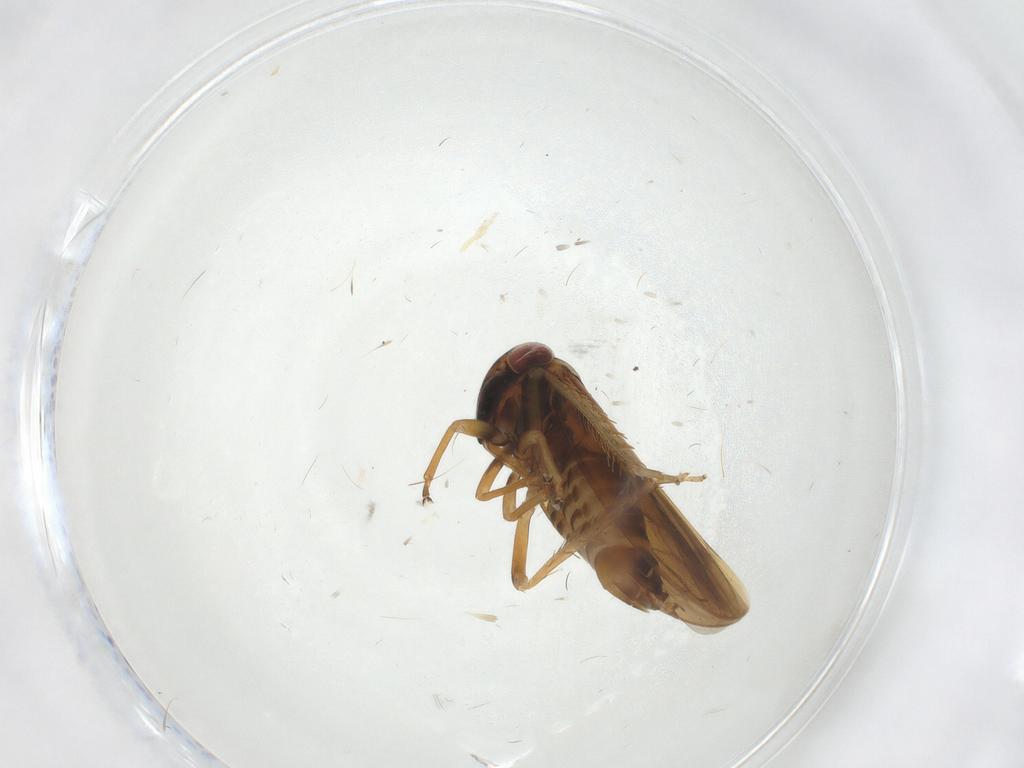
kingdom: Animalia
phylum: Arthropoda
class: Insecta
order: Hemiptera
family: Cicadellidae
